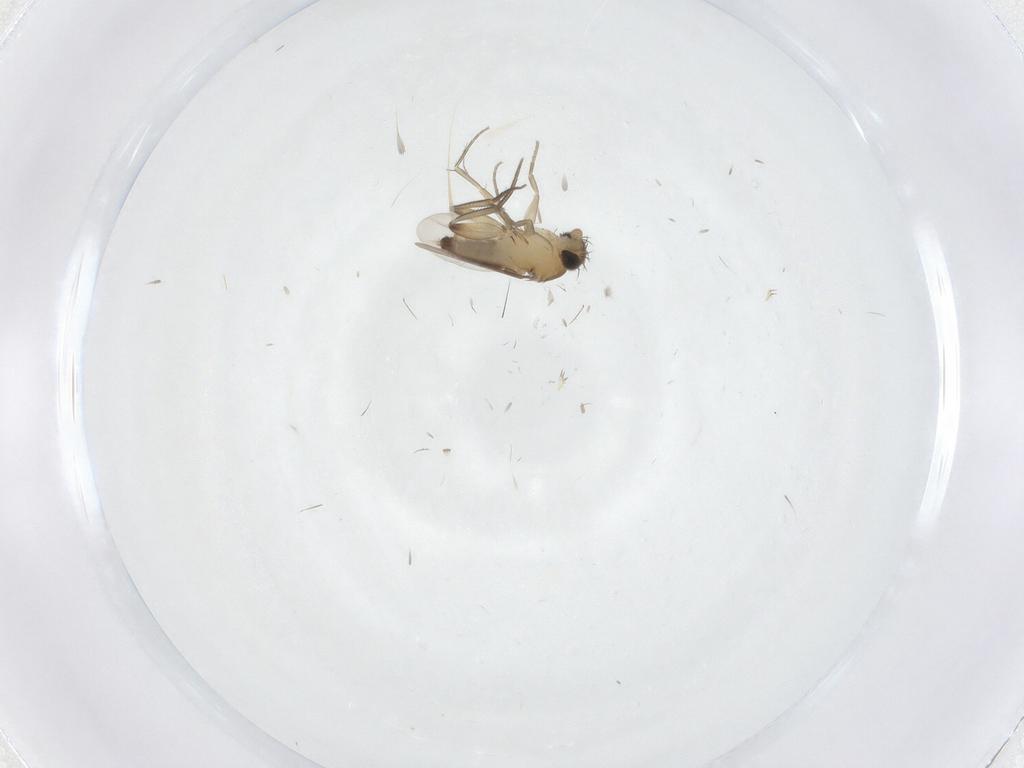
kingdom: Animalia
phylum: Arthropoda
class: Insecta
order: Diptera
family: Phoridae
